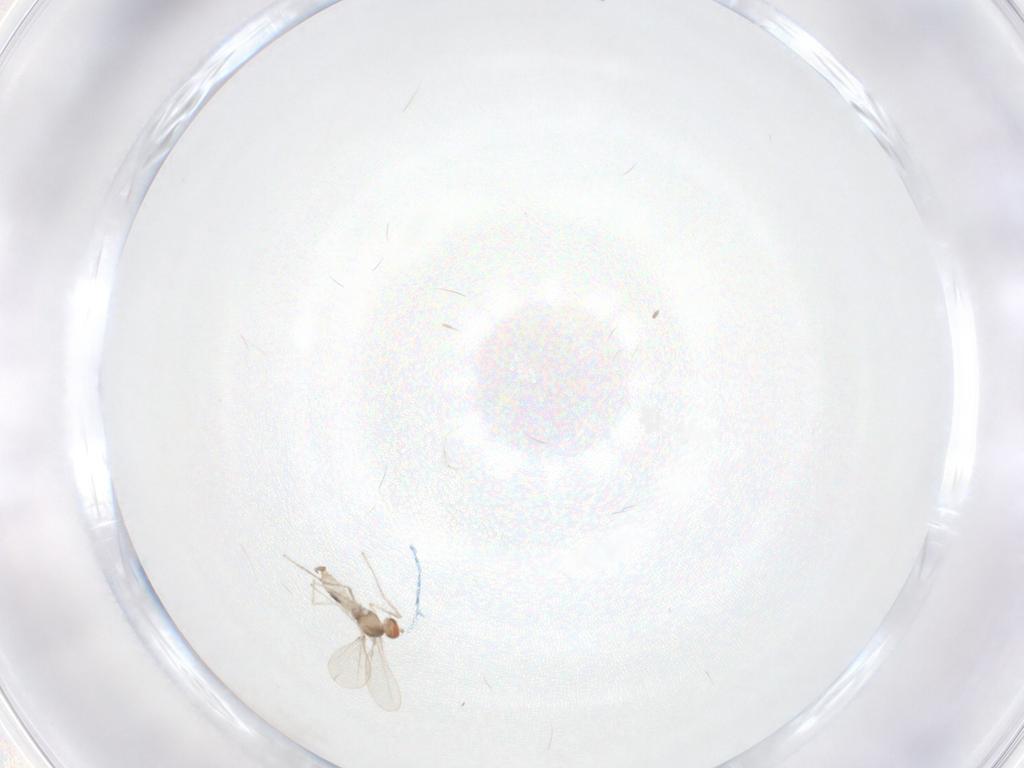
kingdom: Animalia
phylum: Arthropoda
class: Insecta
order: Diptera
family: Cecidomyiidae
